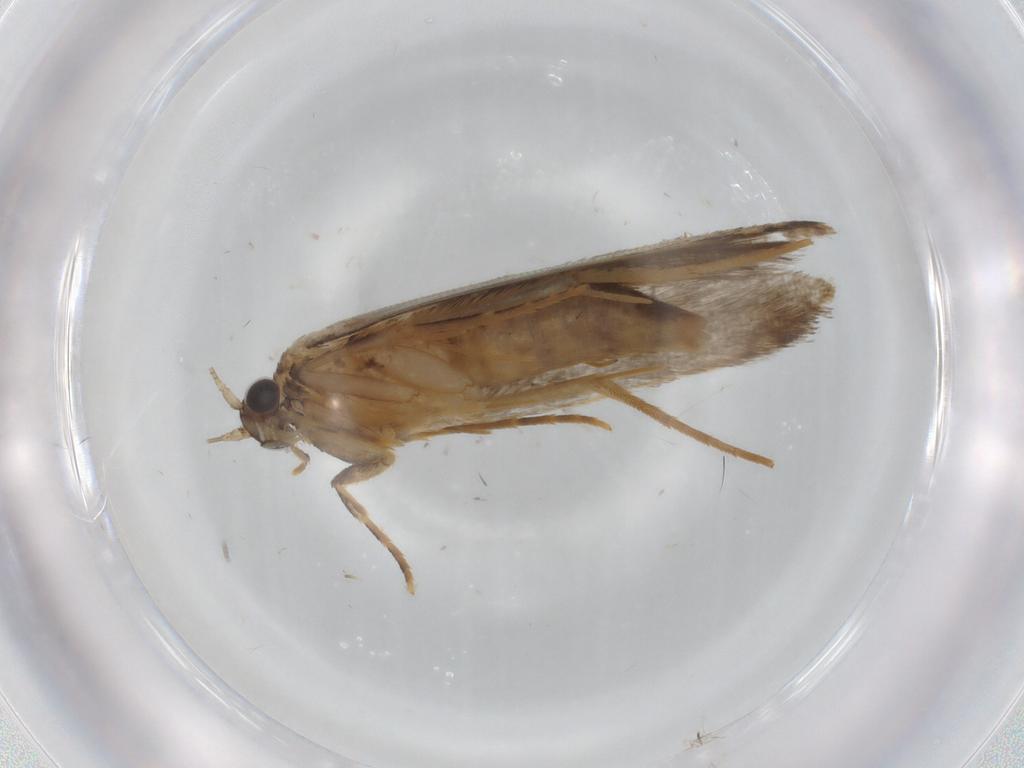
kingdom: Animalia
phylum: Arthropoda
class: Insecta
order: Lepidoptera
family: Tineidae
